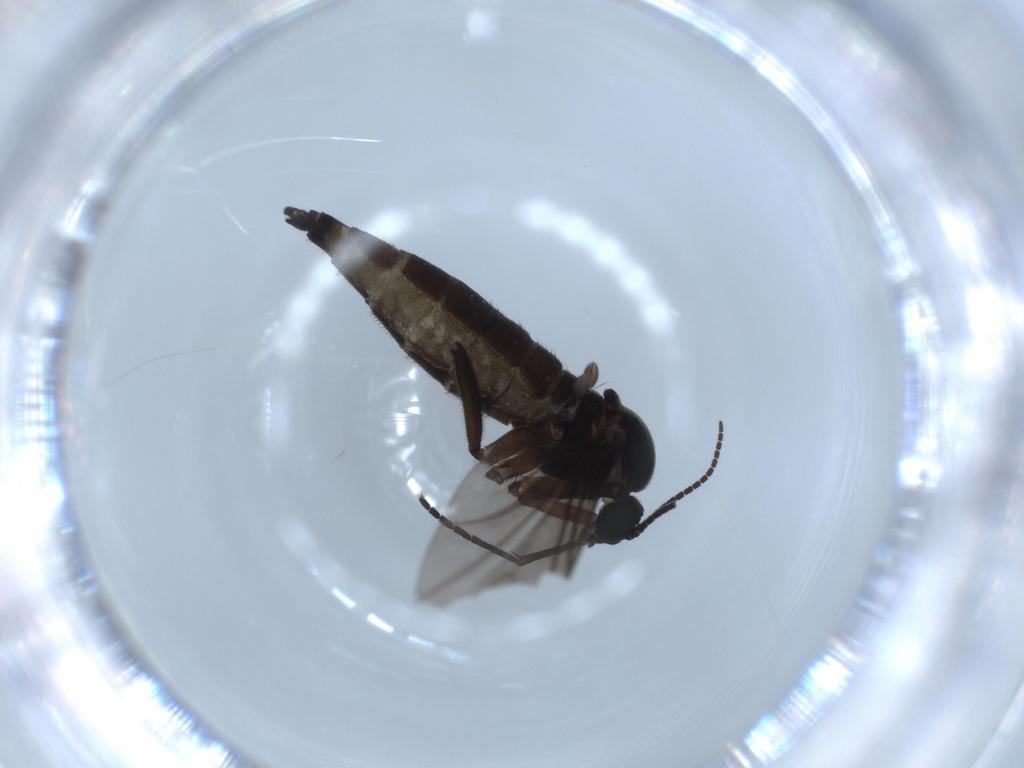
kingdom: Animalia
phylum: Arthropoda
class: Insecta
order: Diptera
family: Sciaridae
